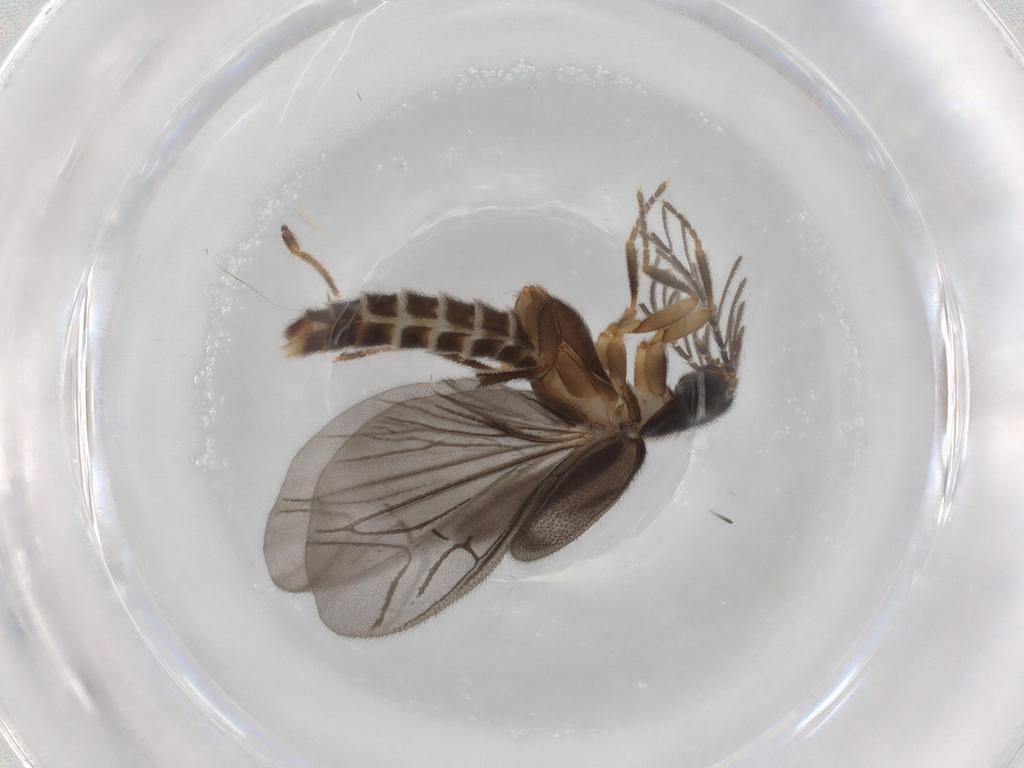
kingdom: Animalia
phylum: Arthropoda
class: Insecta
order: Coleoptera
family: Ptilodactylidae
